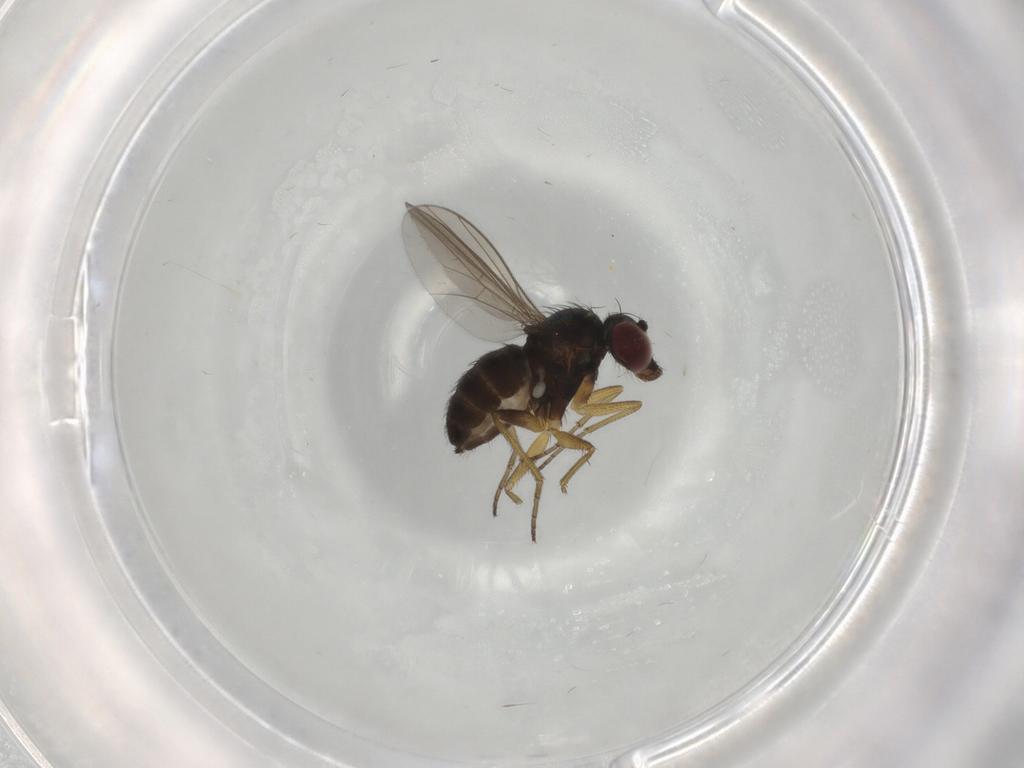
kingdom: Animalia
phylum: Arthropoda
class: Insecta
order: Diptera
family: Dolichopodidae
